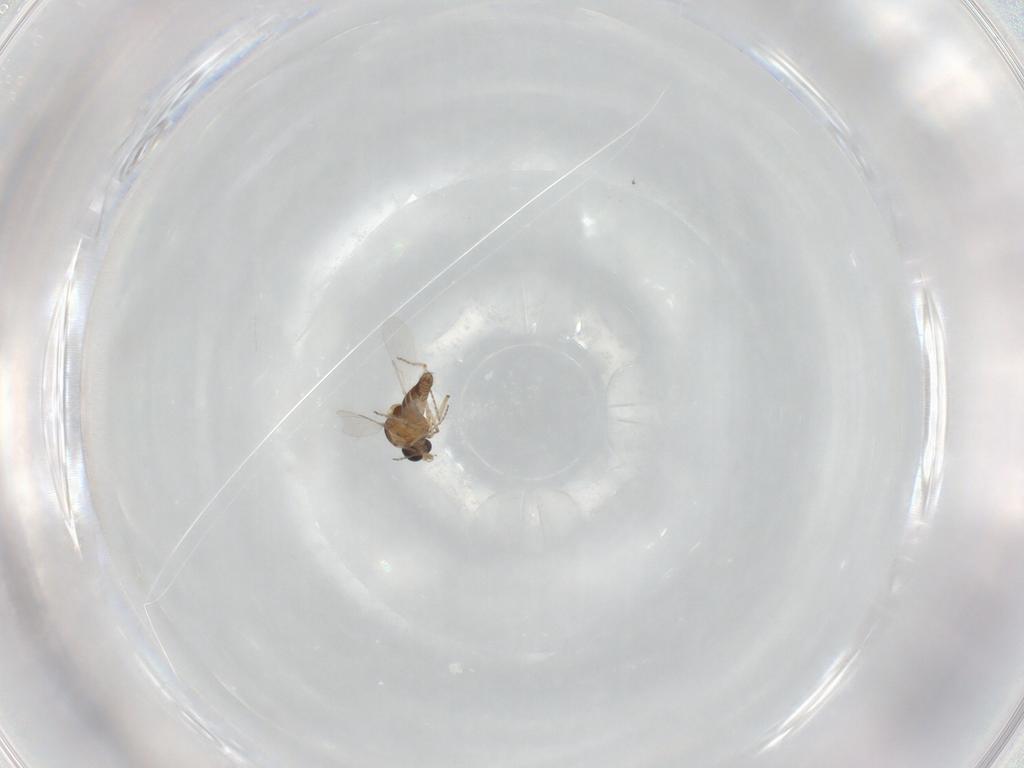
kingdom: Animalia
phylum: Arthropoda
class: Insecta
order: Diptera
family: Ceratopogonidae
